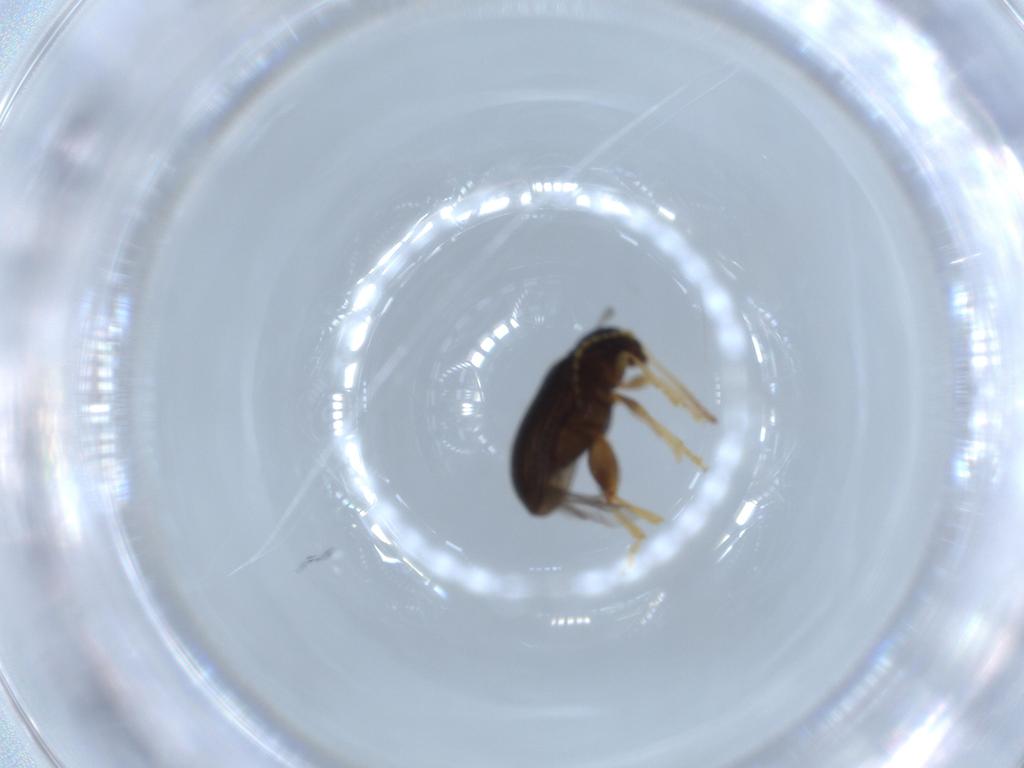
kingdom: Animalia
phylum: Arthropoda
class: Insecta
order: Coleoptera
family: Chrysomelidae
